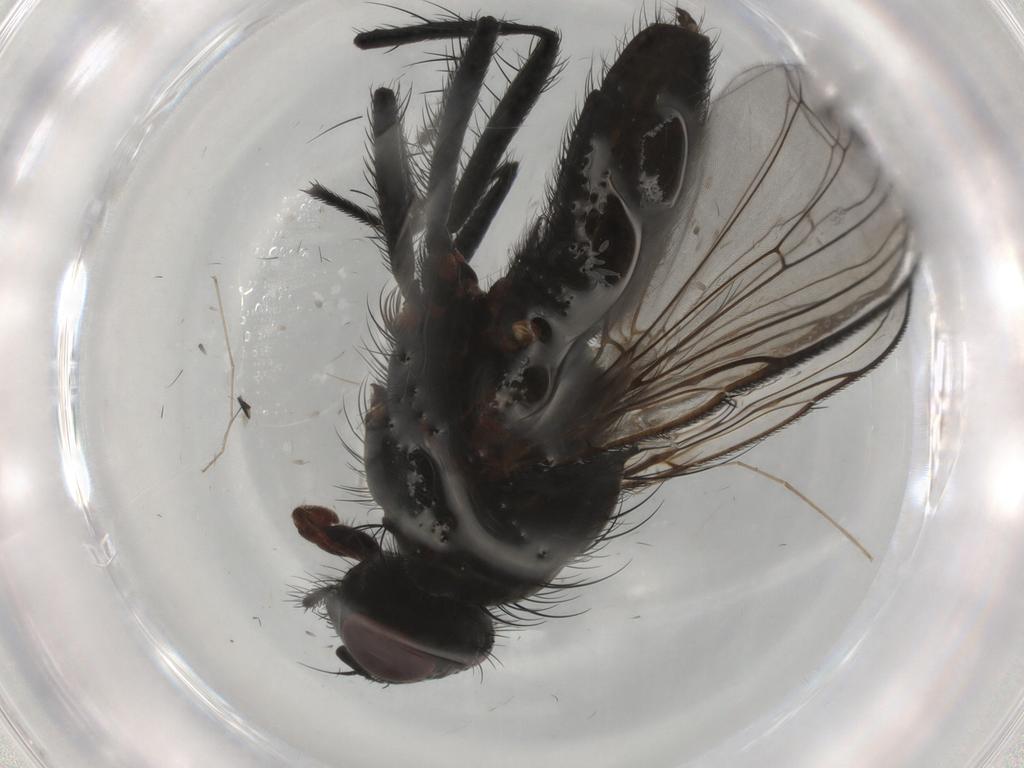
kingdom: Animalia
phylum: Arthropoda
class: Insecta
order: Diptera
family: Anthomyiidae
